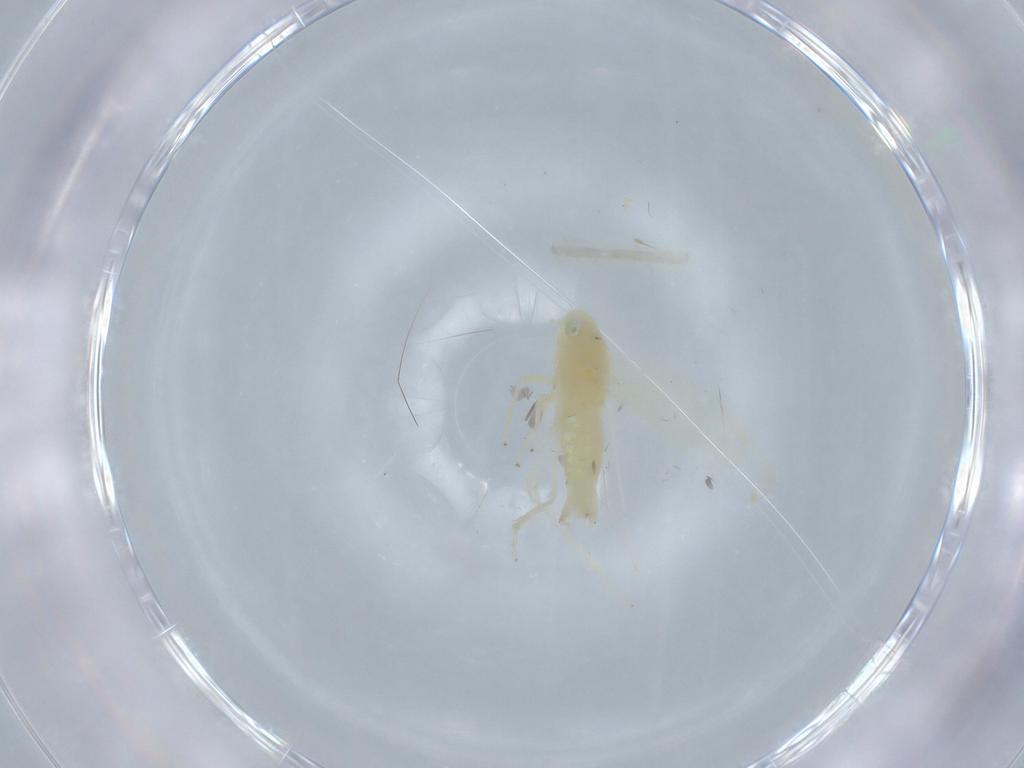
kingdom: Animalia
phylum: Arthropoda
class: Insecta
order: Hemiptera
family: Cicadellidae
